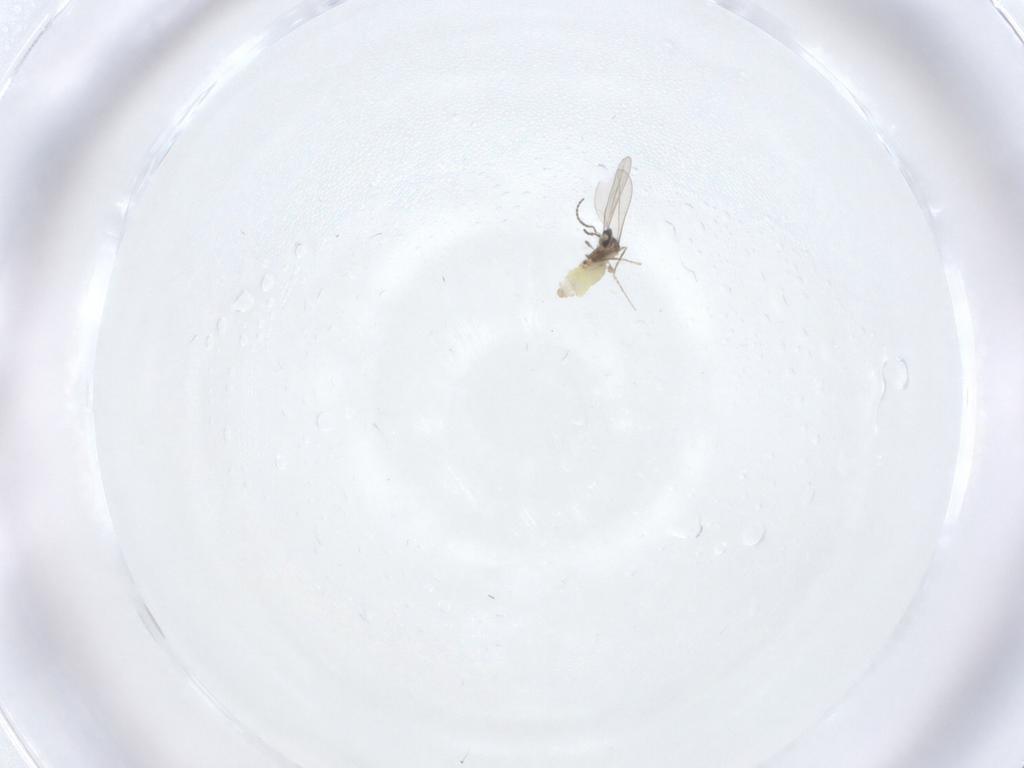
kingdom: Animalia
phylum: Arthropoda
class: Insecta
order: Diptera
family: Cecidomyiidae
